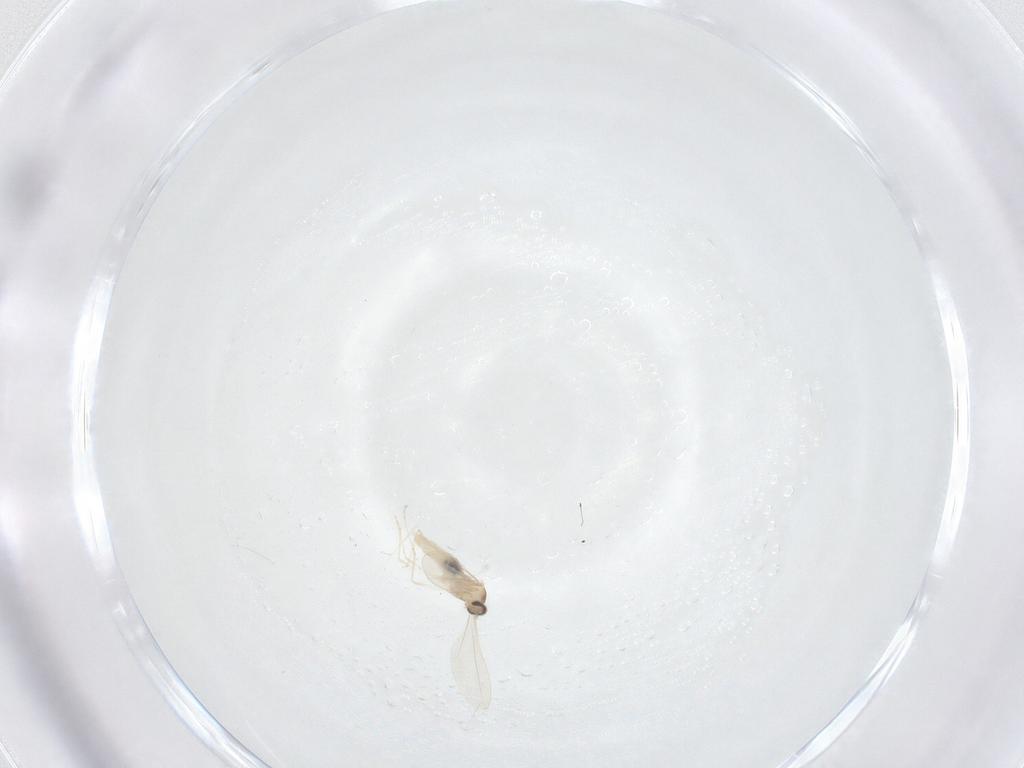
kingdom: Animalia
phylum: Arthropoda
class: Insecta
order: Diptera
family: Cecidomyiidae
